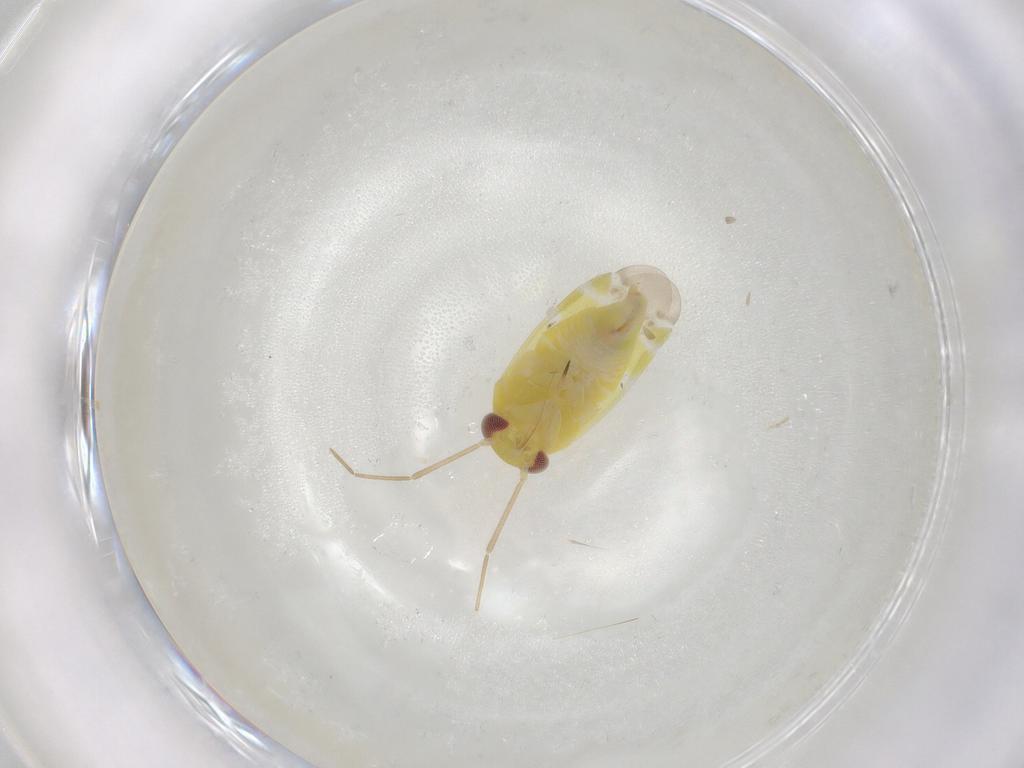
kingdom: Animalia
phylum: Arthropoda
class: Insecta
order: Hemiptera
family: Miridae
